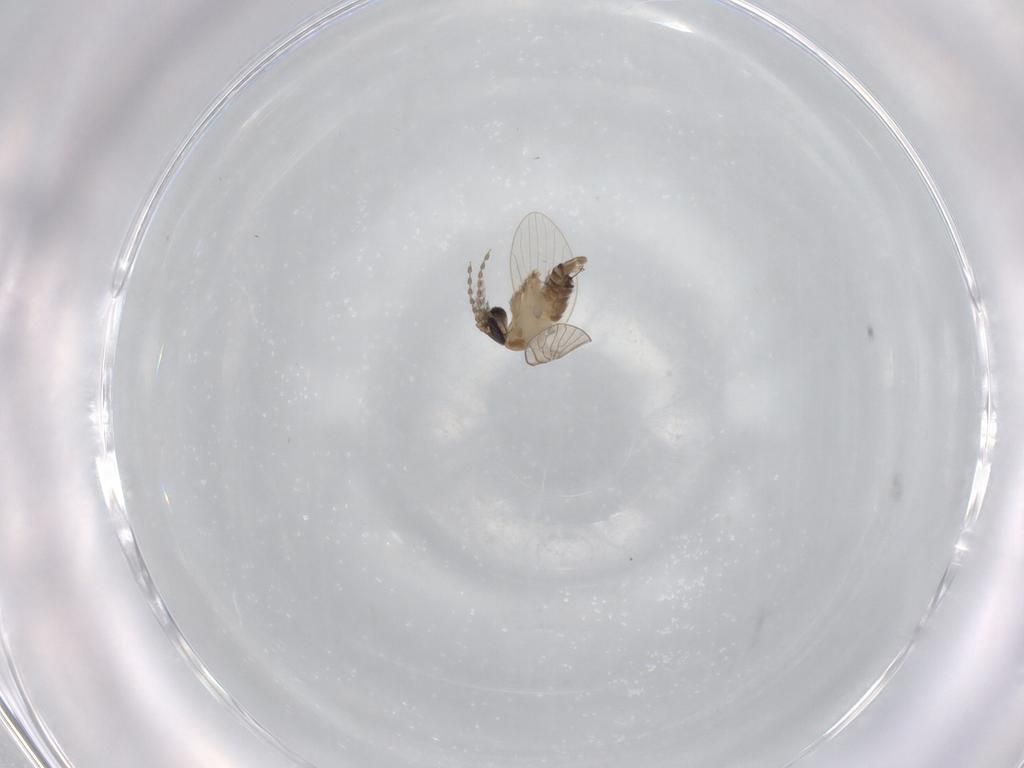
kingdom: Animalia
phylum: Arthropoda
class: Insecta
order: Diptera
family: Psychodidae
